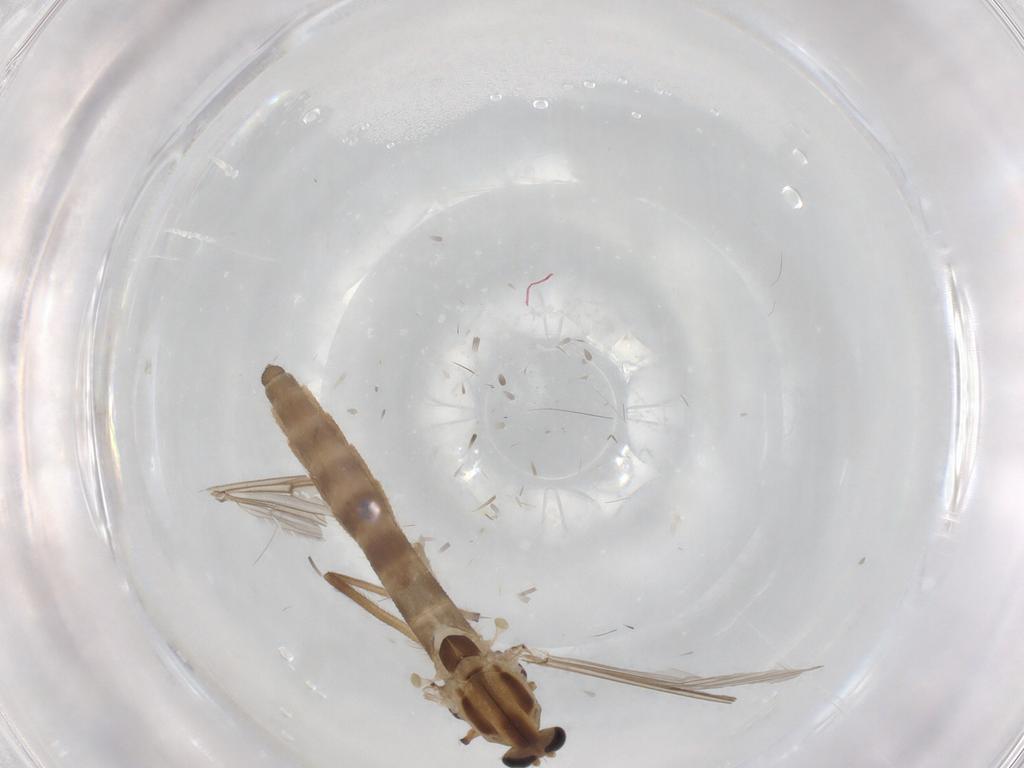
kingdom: Animalia
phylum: Arthropoda
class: Insecta
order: Diptera
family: Chironomidae
